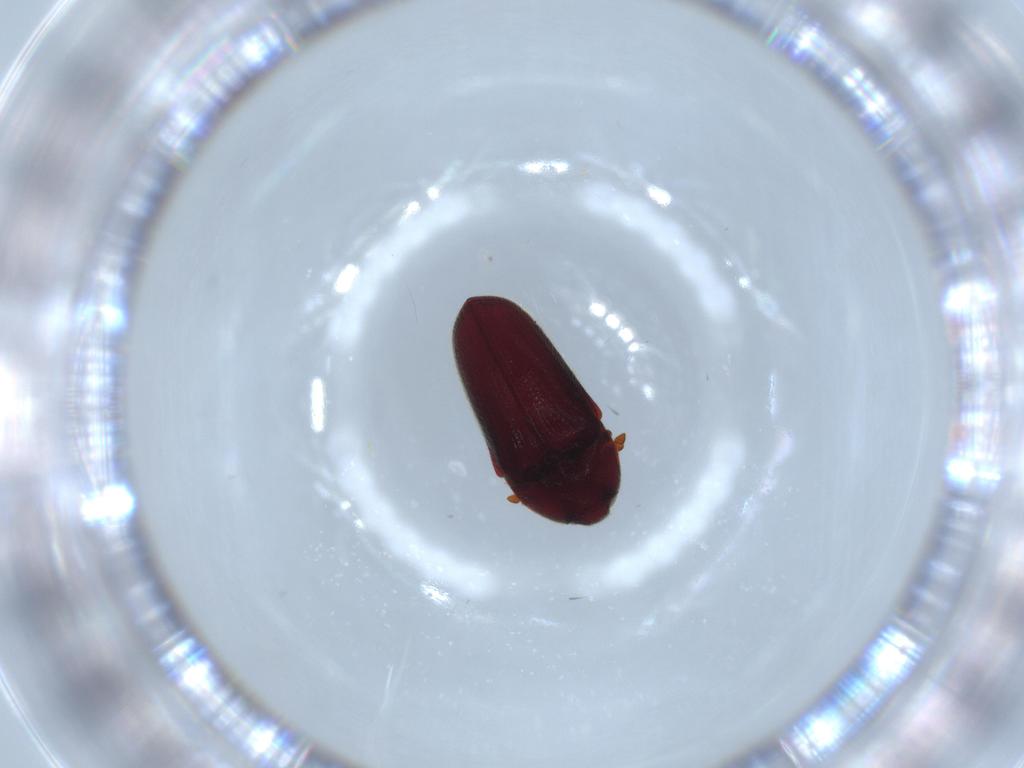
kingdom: Animalia
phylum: Arthropoda
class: Insecta
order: Coleoptera
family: Throscidae
